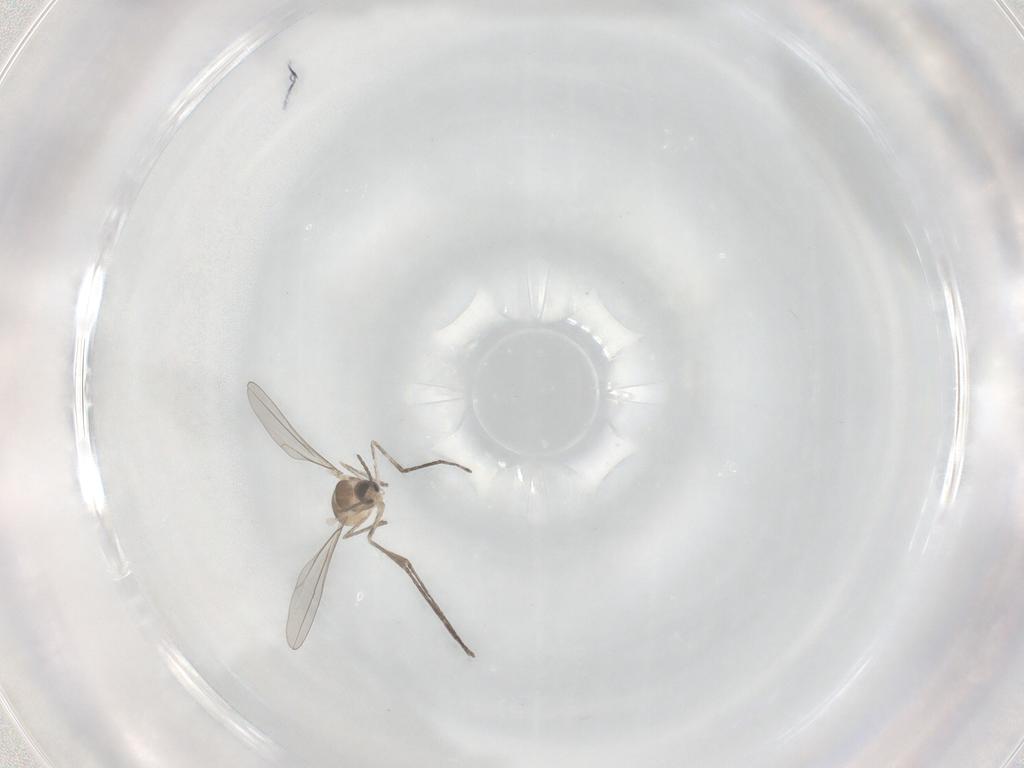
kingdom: Animalia
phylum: Arthropoda
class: Insecta
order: Diptera
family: Cecidomyiidae
